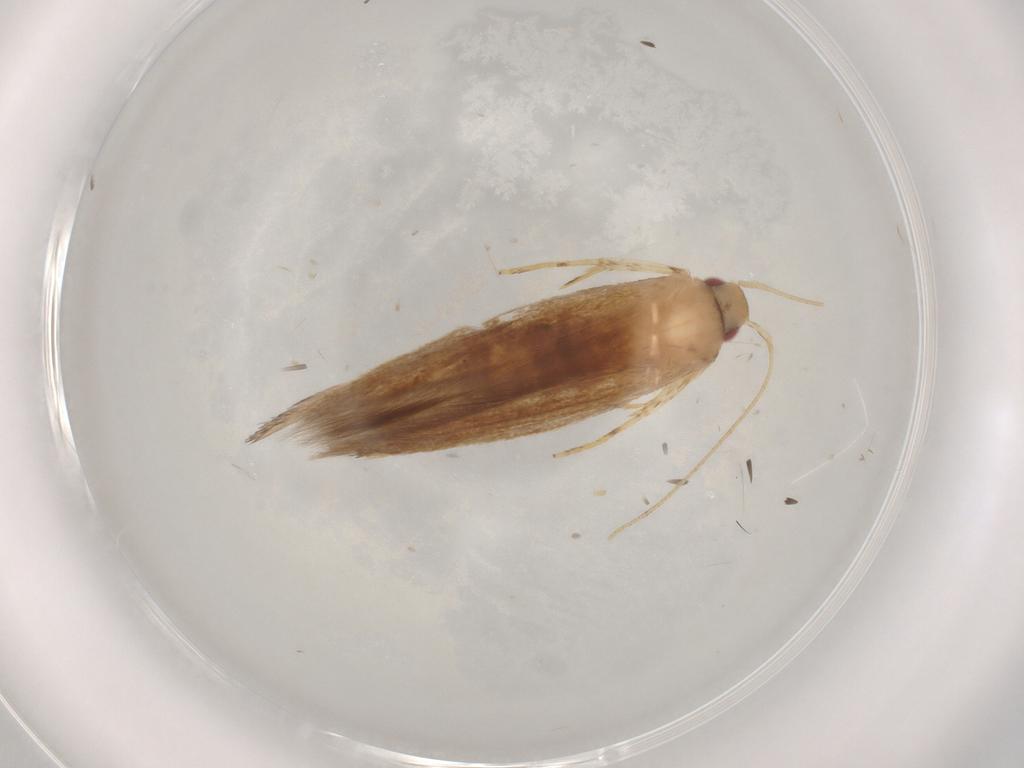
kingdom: Animalia
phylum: Arthropoda
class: Insecta
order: Lepidoptera
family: Cosmopterigidae
